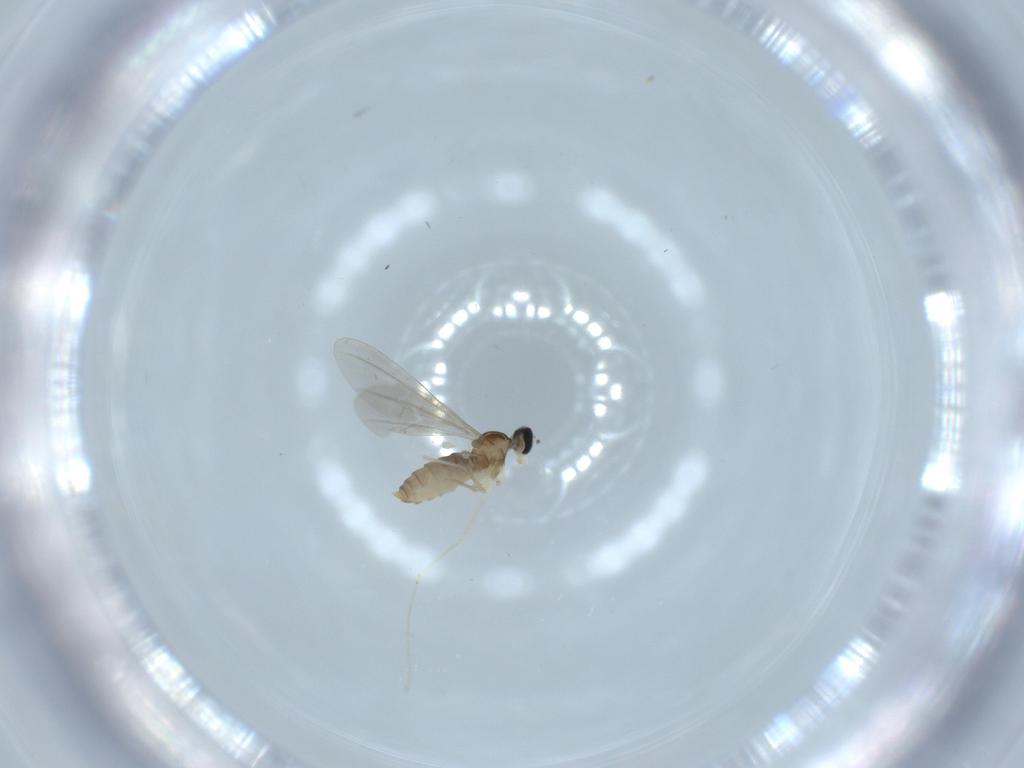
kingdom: Animalia
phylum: Arthropoda
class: Insecta
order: Diptera
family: Cecidomyiidae
